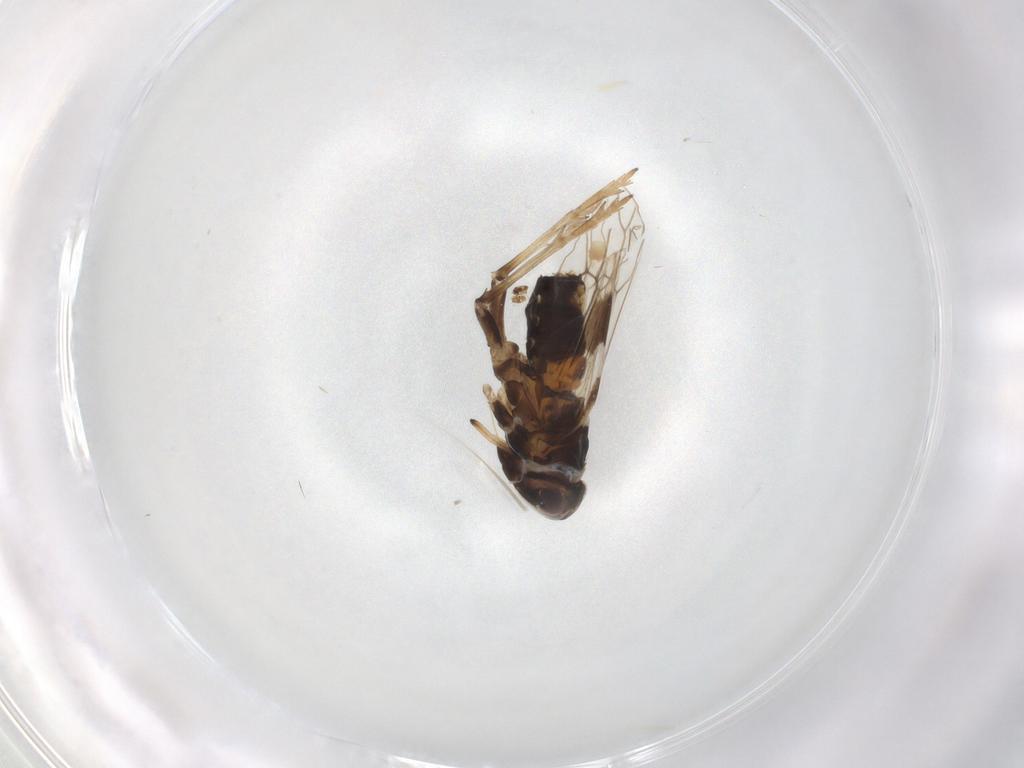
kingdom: Animalia
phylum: Arthropoda
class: Insecta
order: Hemiptera
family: Delphacidae
